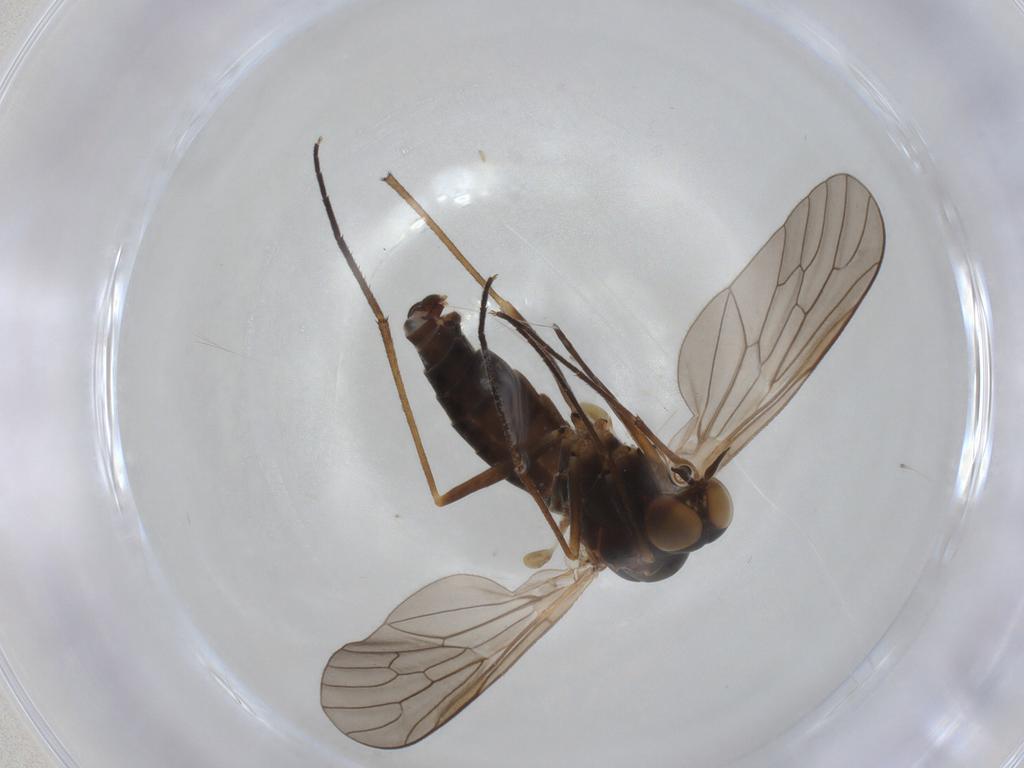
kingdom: Animalia
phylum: Arthropoda
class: Insecta
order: Diptera
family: Bombyliidae
